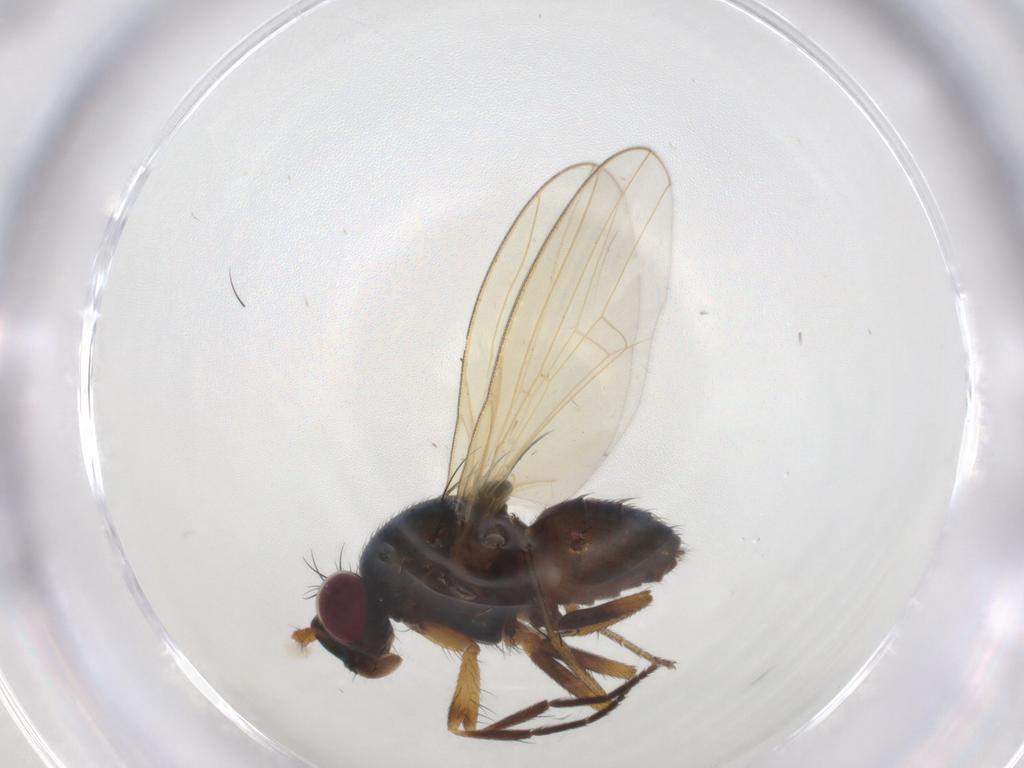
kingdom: Animalia
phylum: Arthropoda
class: Insecta
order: Diptera
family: Lauxaniidae
